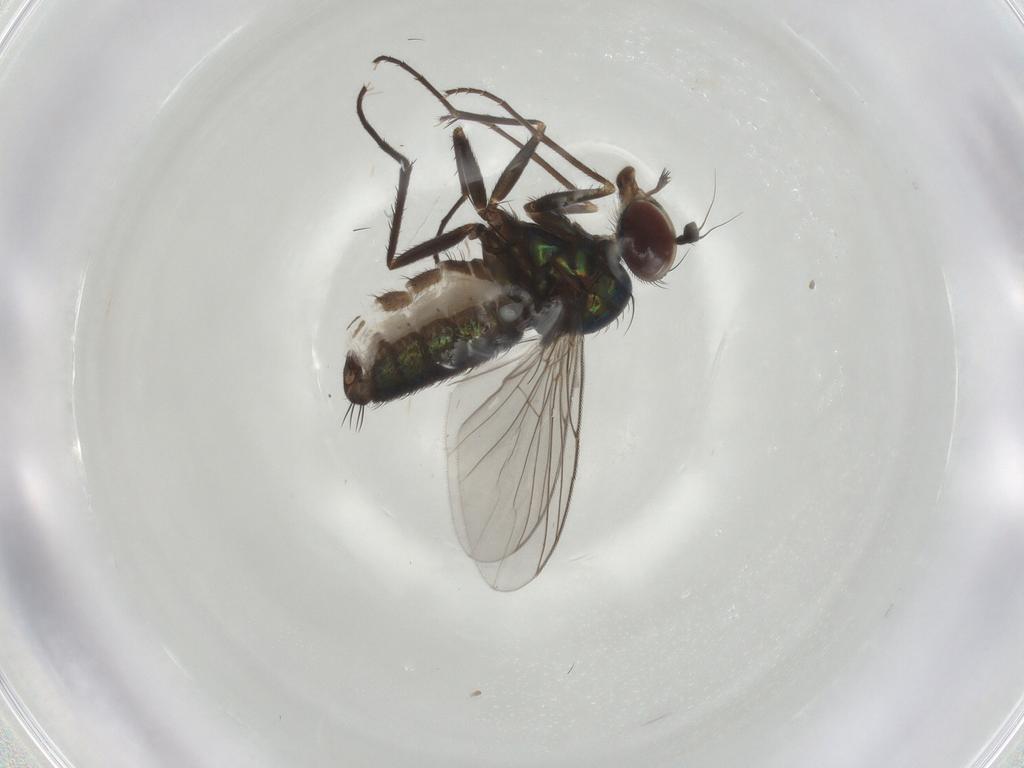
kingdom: Animalia
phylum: Arthropoda
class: Insecta
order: Diptera
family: Dolichopodidae
